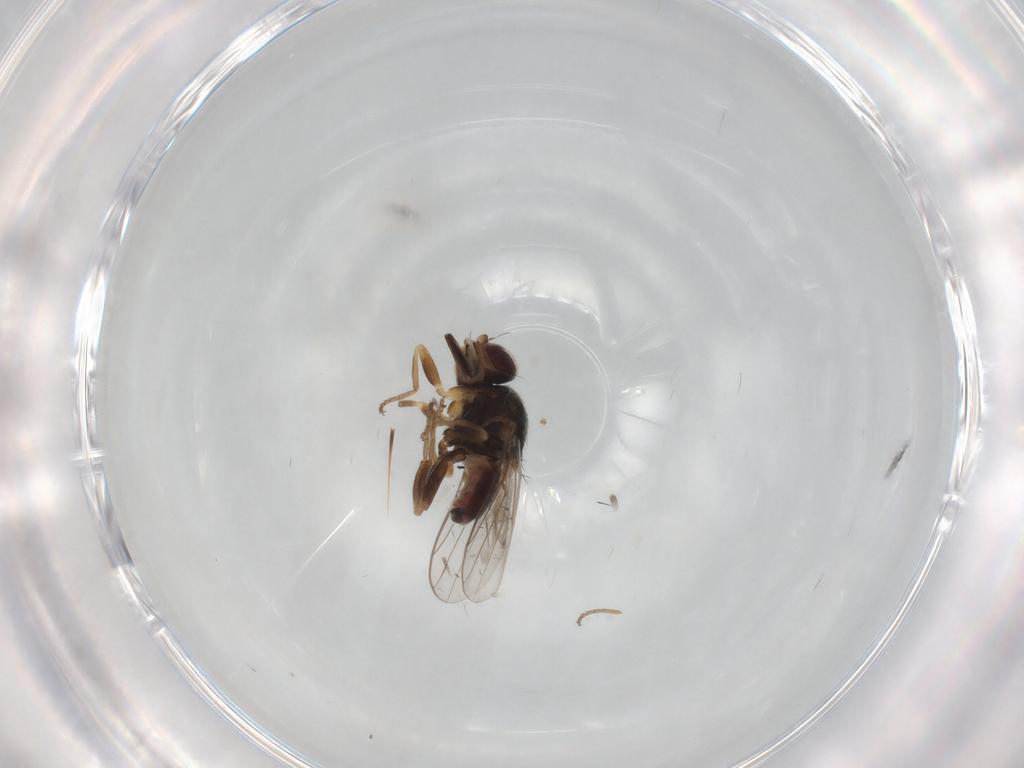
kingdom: Animalia
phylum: Arthropoda
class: Insecta
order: Diptera
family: Chloropidae
